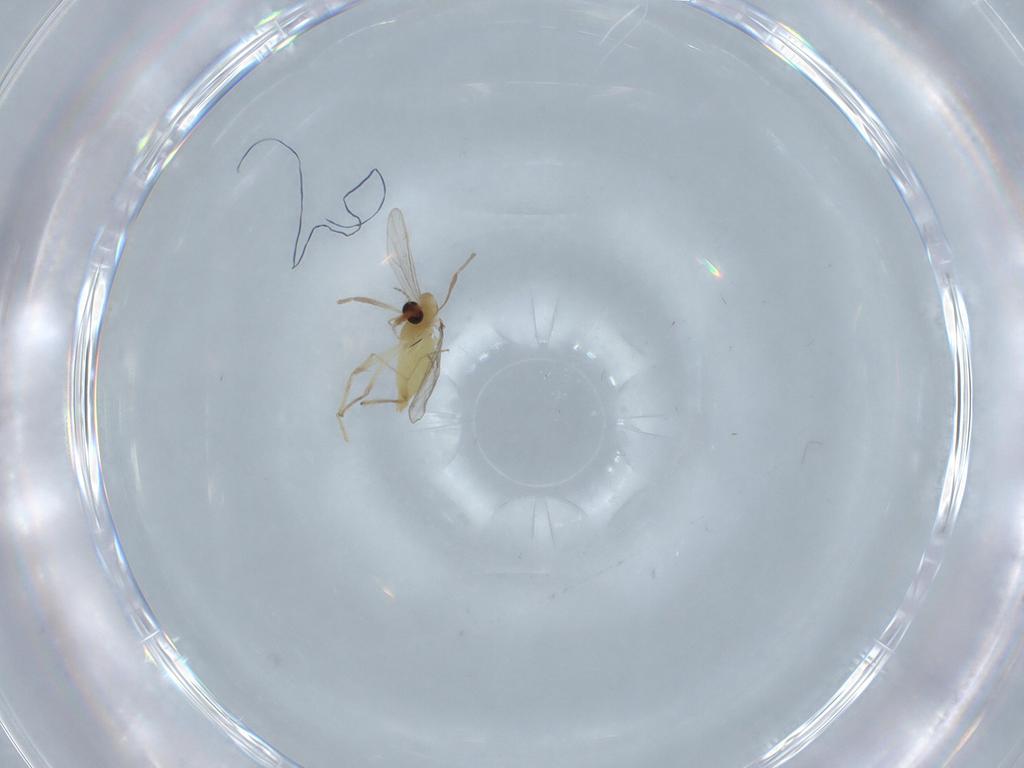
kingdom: Animalia
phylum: Arthropoda
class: Insecta
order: Diptera
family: Chironomidae
